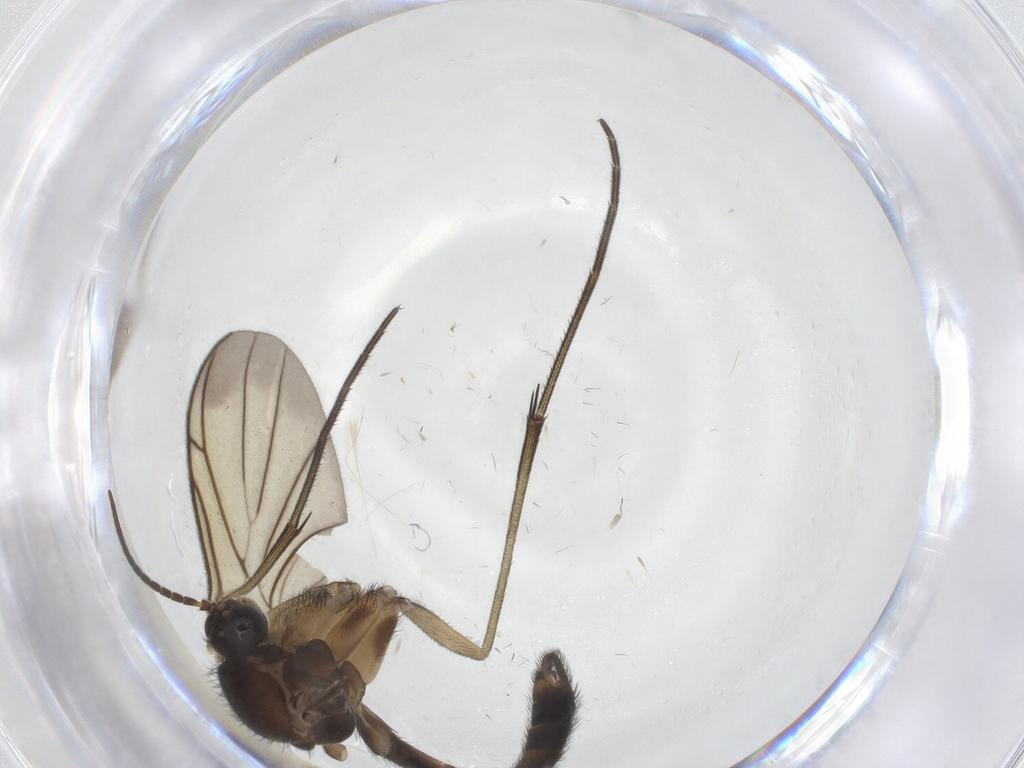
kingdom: Animalia
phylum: Arthropoda
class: Insecta
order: Diptera
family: Keroplatidae
